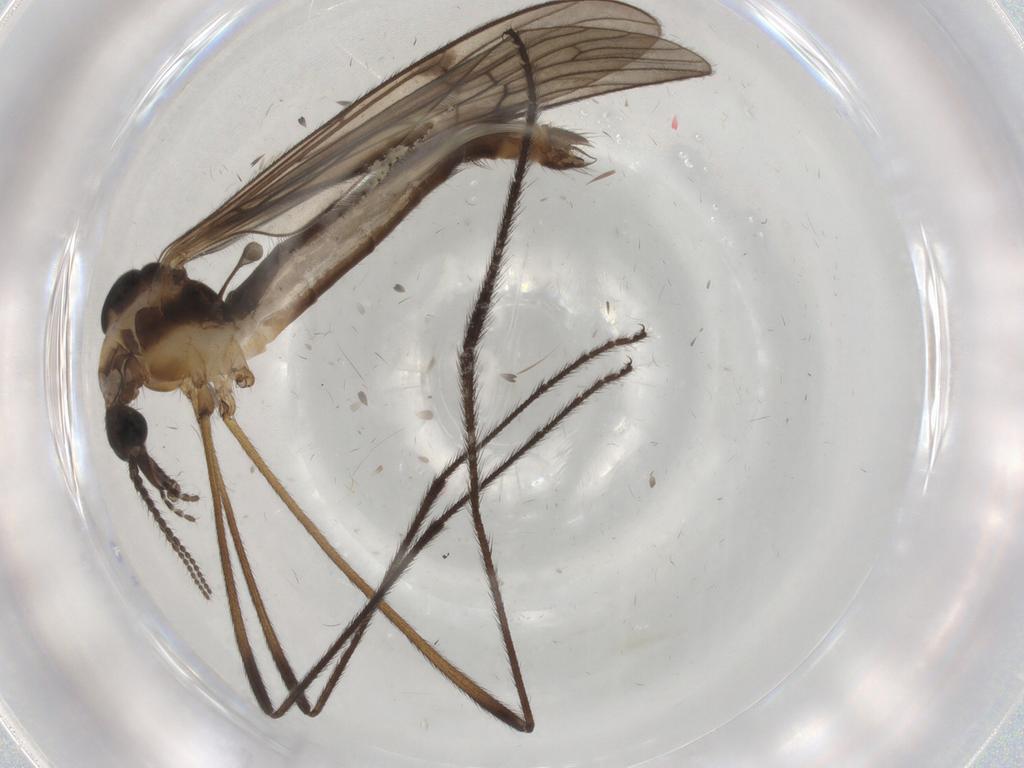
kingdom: Animalia
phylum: Arthropoda
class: Insecta
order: Diptera
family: Limoniidae
